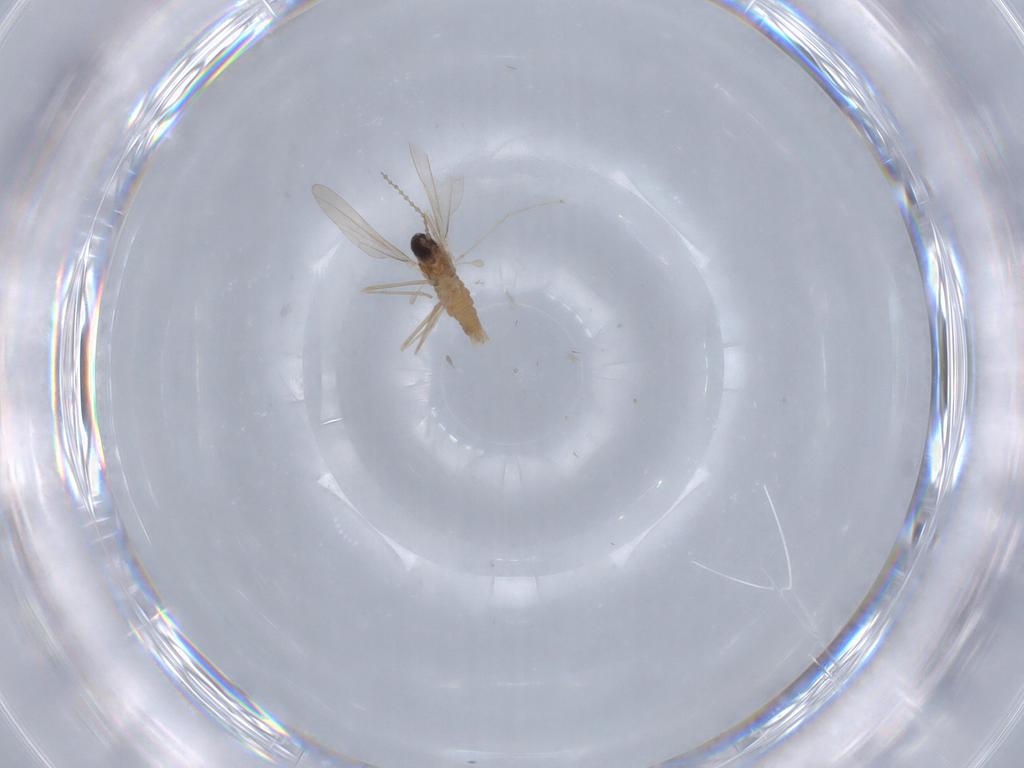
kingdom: Animalia
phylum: Arthropoda
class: Insecta
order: Diptera
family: Cecidomyiidae
